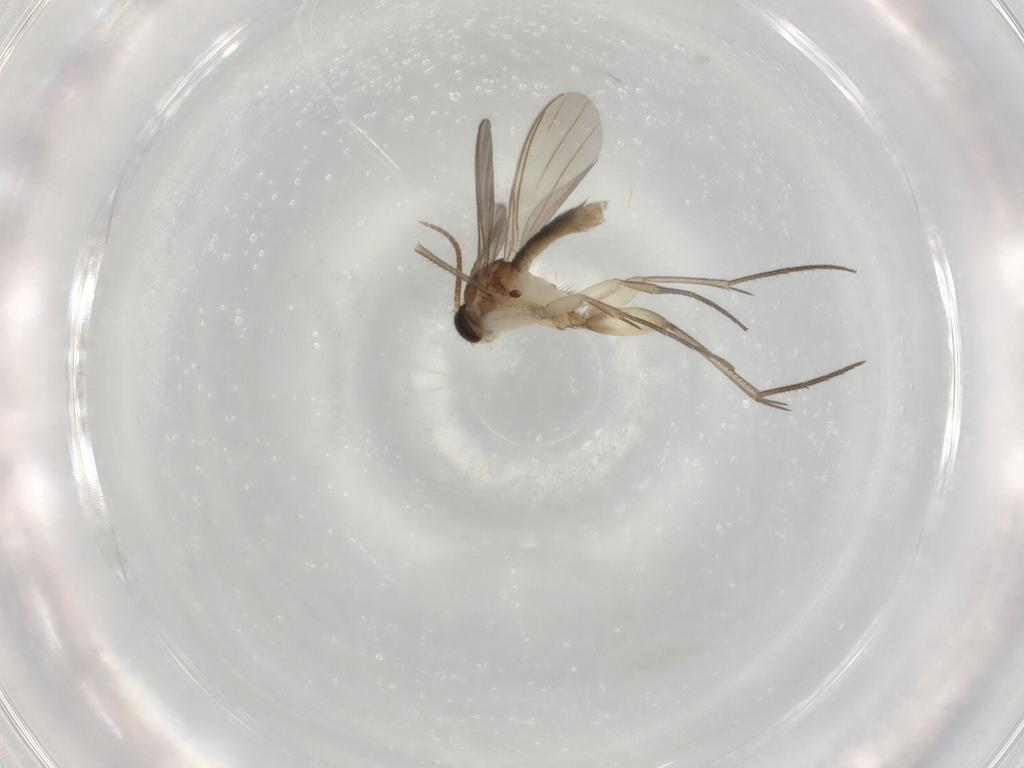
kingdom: Animalia
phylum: Arthropoda
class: Insecta
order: Diptera
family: Mycetophilidae
